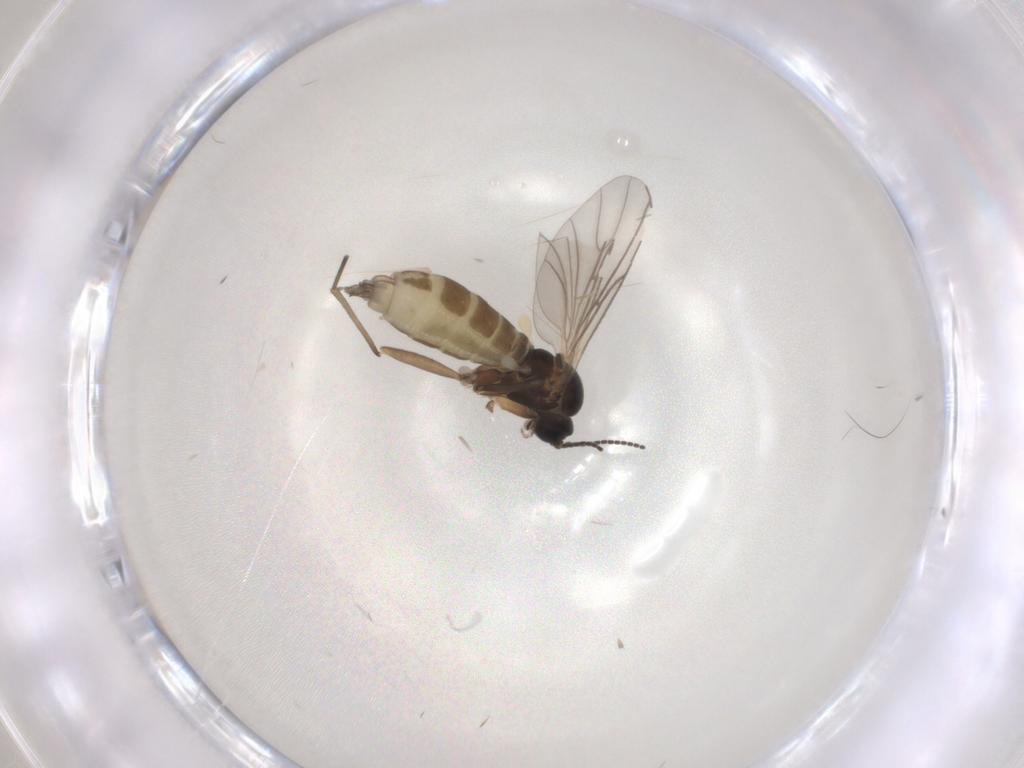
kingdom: Animalia
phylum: Arthropoda
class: Insecta
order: Diptera
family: Sciaridae
